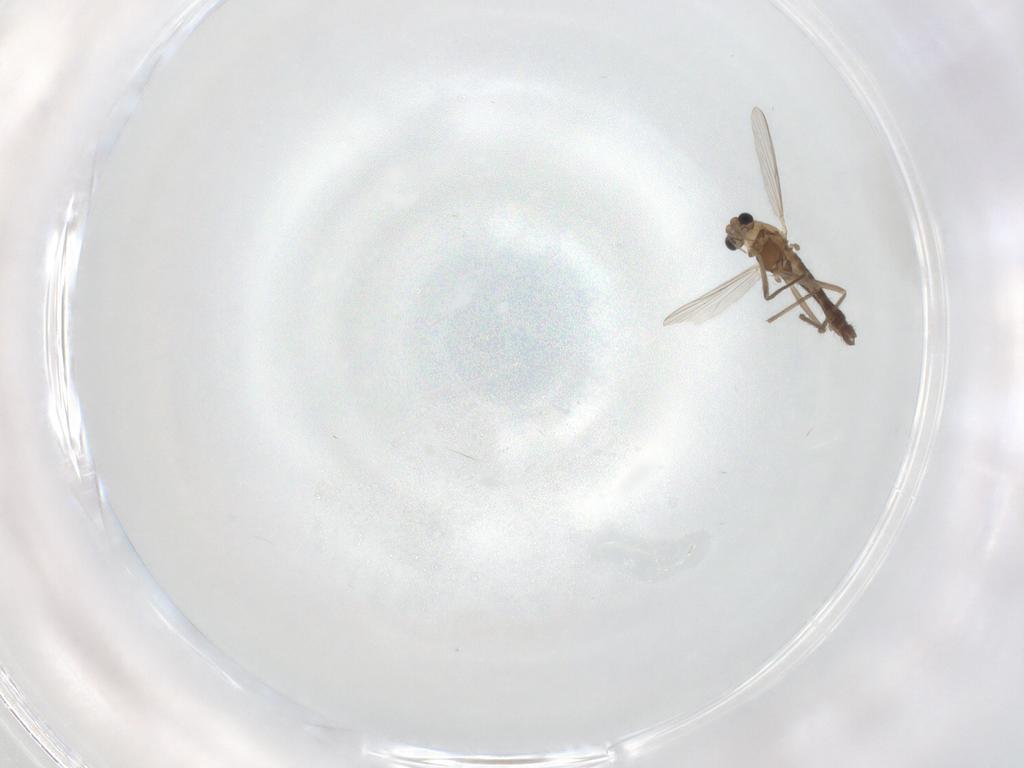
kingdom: Animalia
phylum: Arthropoda
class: Insecta
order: Diptera
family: Chironomidae
